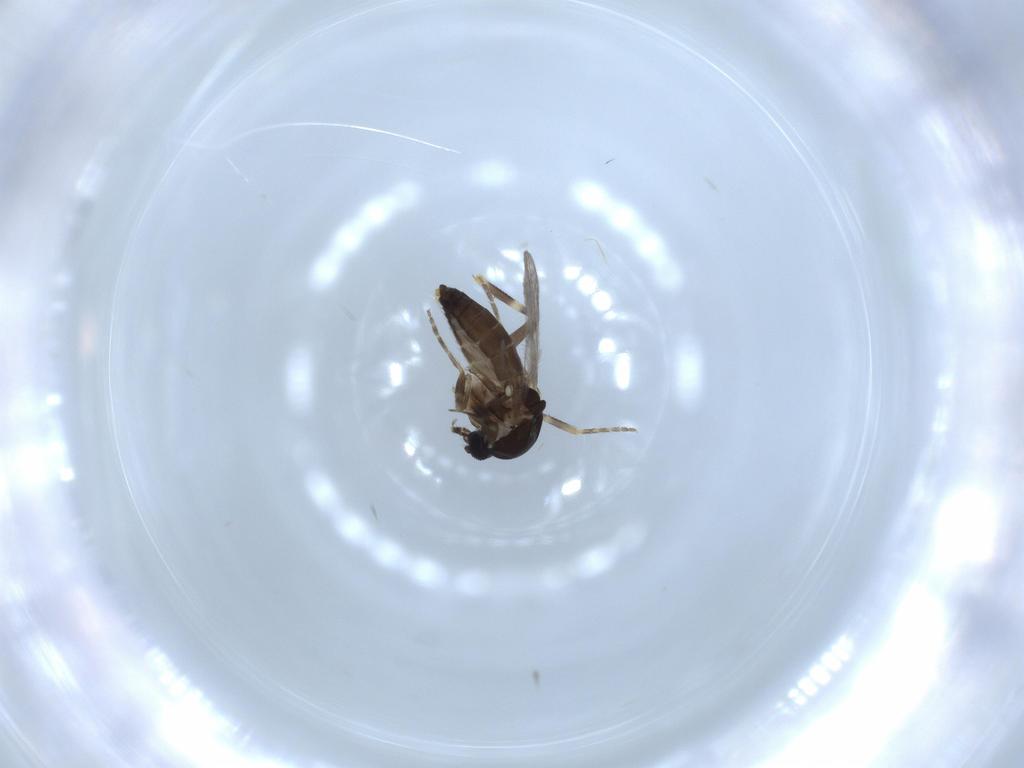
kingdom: Animalia
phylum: Arthropoda
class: Insecta
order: Diptera
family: Ceratopogonidae
